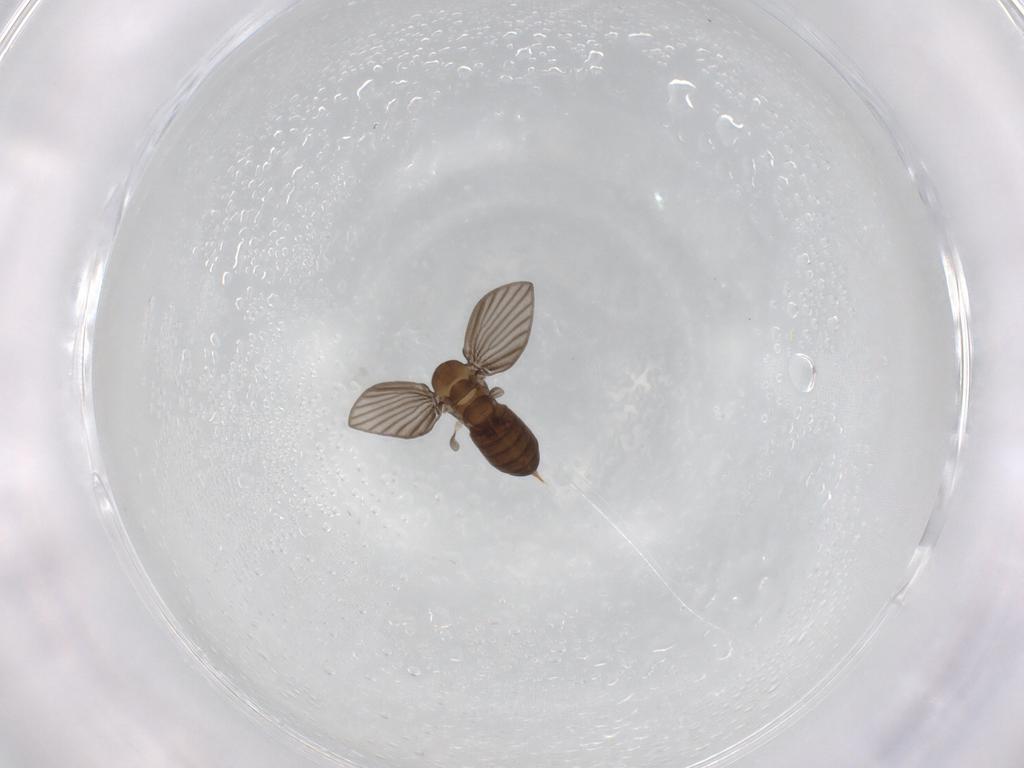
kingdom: Animalia
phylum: Arthropoda
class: Insecta
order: Diptera
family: Psychodidae
